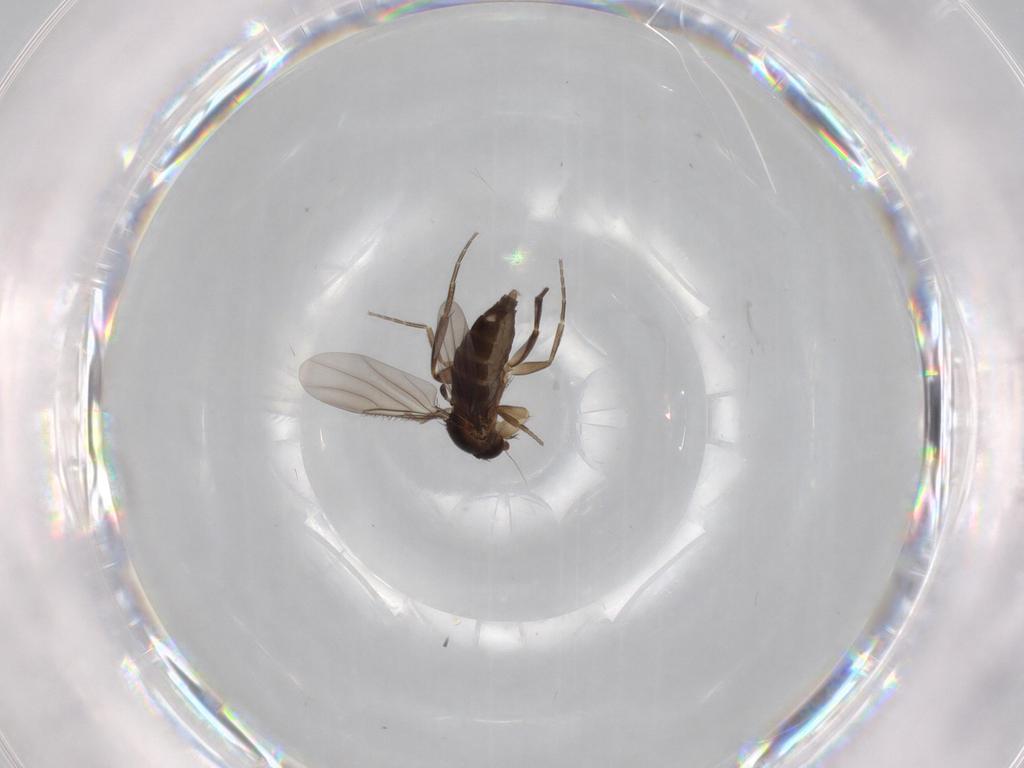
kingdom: Animalia
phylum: Arthropoda
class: Insecta
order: Diptera
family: Phoridae
